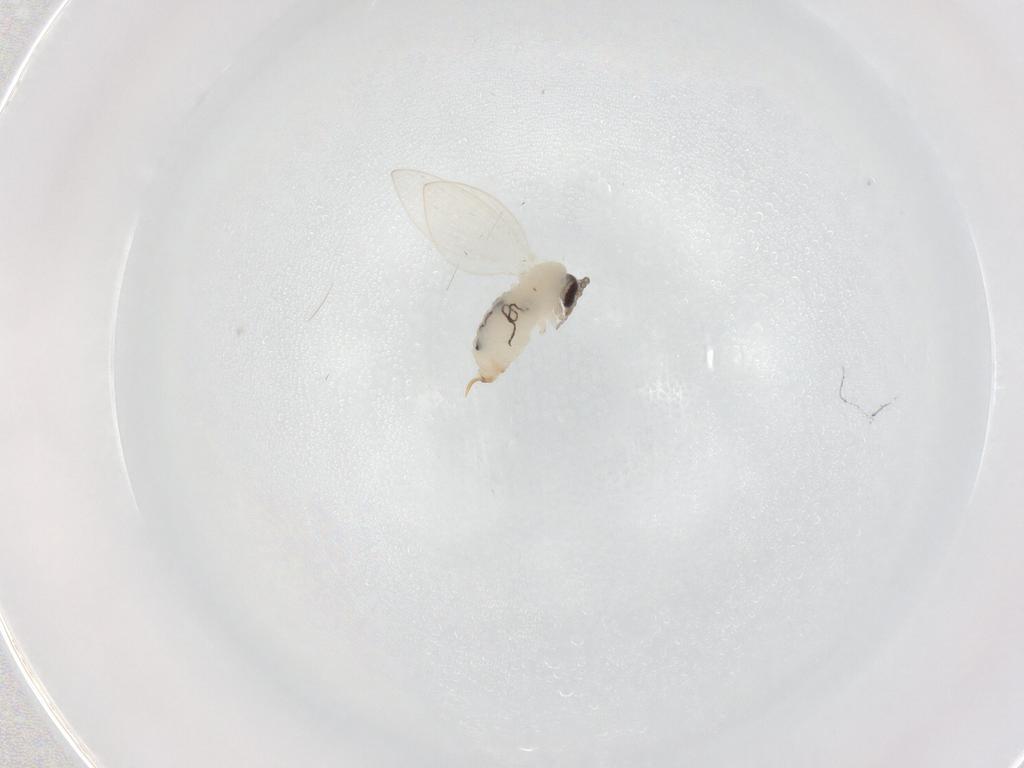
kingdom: Animalia
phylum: Arthropoda
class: Insecta
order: Diptera
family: Psychodidae
